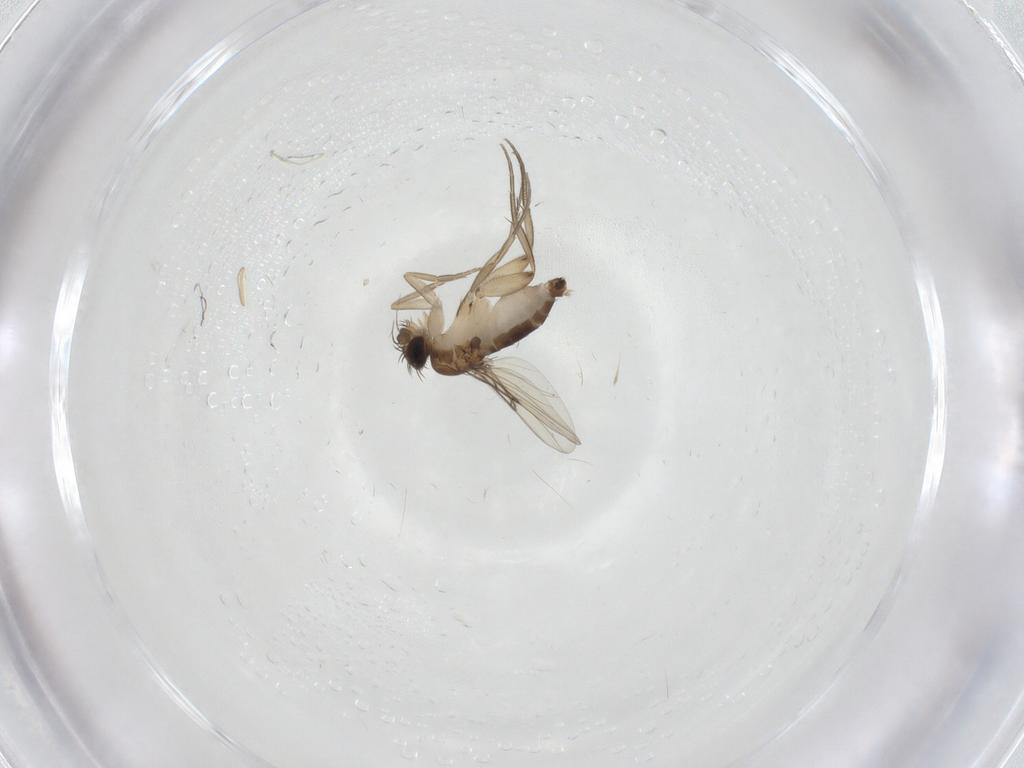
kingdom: Animalia
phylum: Arthropoda
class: Insecta
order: Diptera
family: Phoridae
